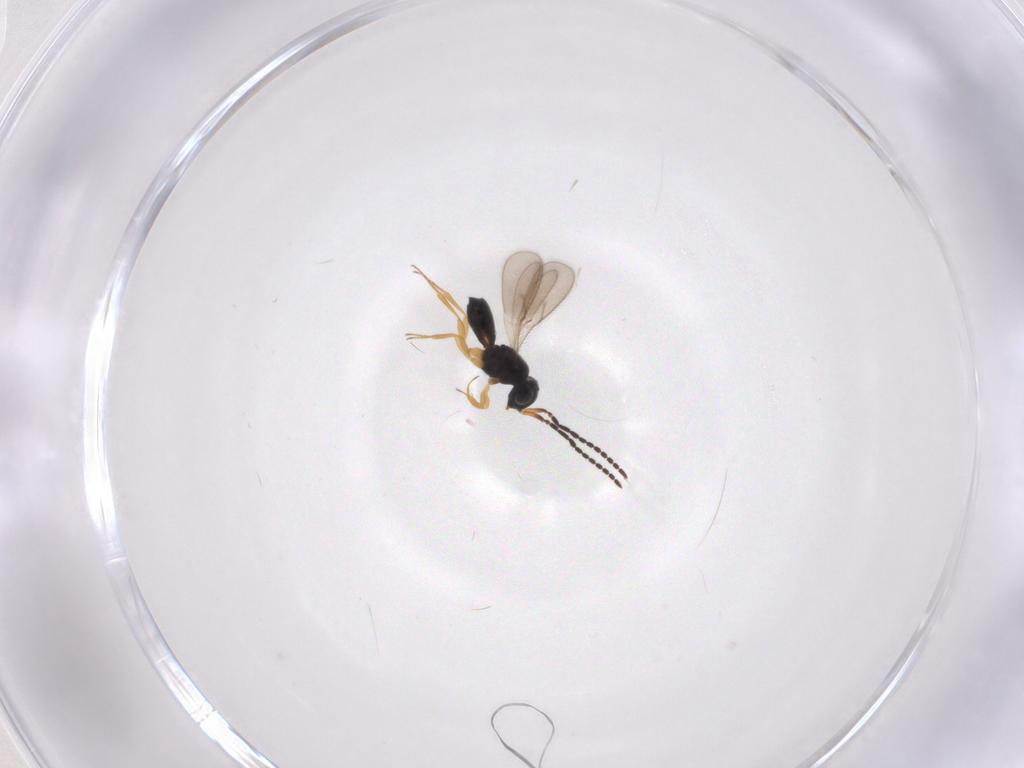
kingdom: Animalia
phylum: Arthropoda
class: Insecta
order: Hymenoptera
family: Scelionidae
